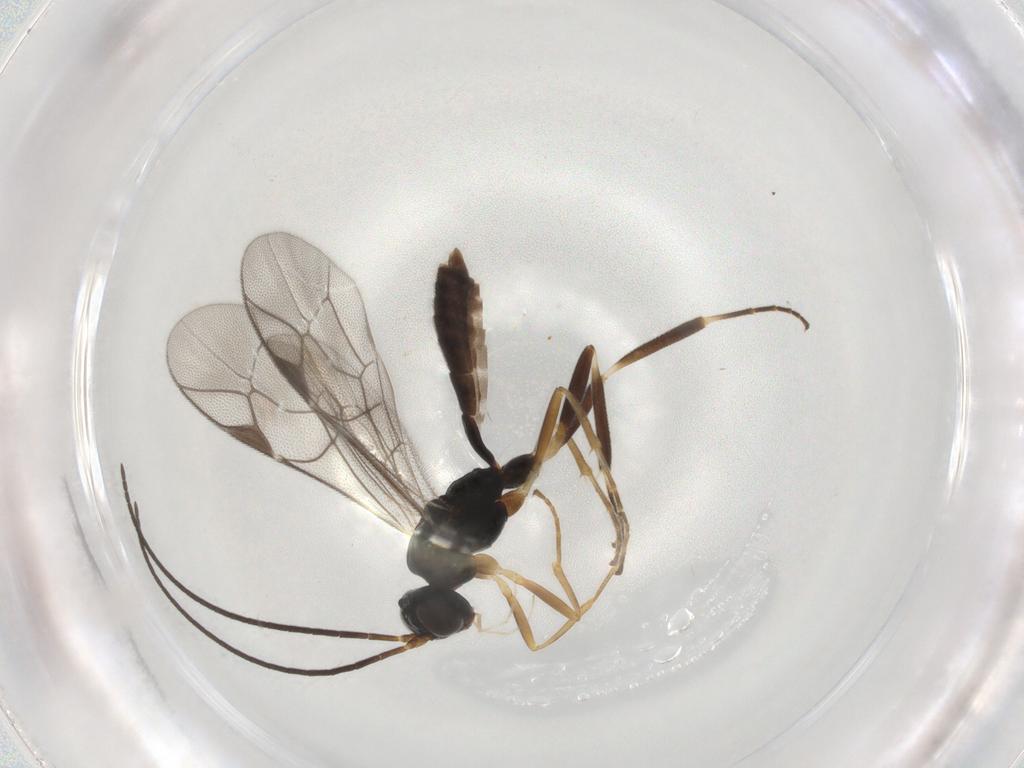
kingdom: Animalia
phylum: Arthropoda
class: Insecta
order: Hymenoptera
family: Ichneumonidae
